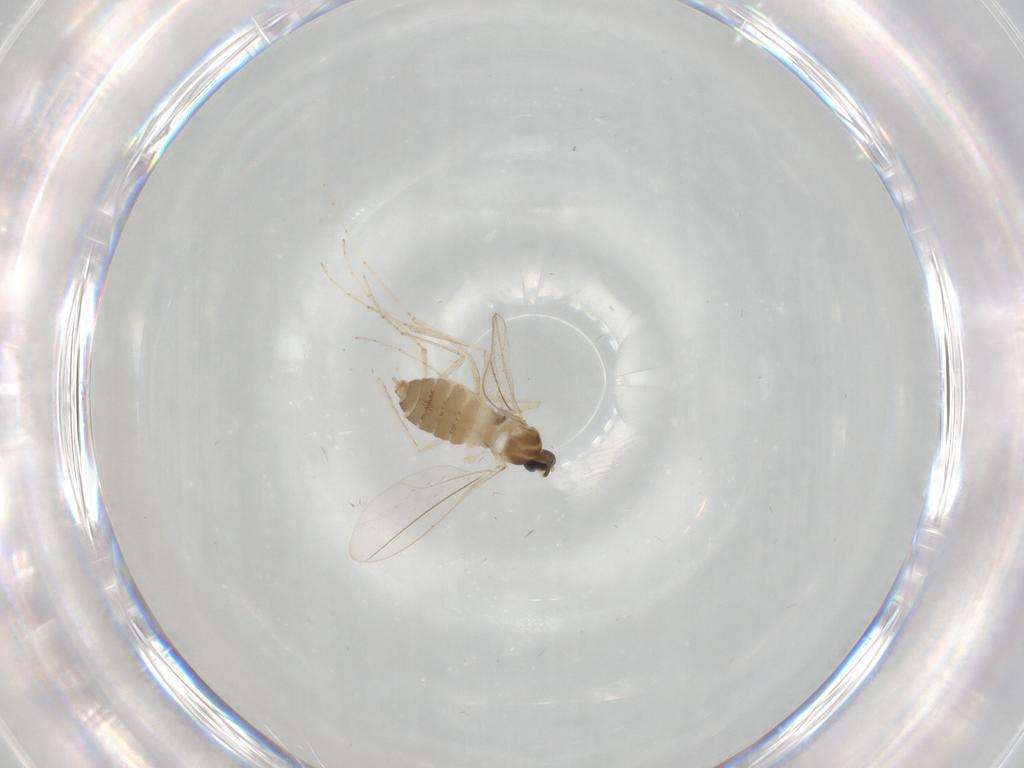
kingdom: Animalia
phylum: Arthropoda
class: Insecta
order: Diptera
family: Cecidomyiidae
